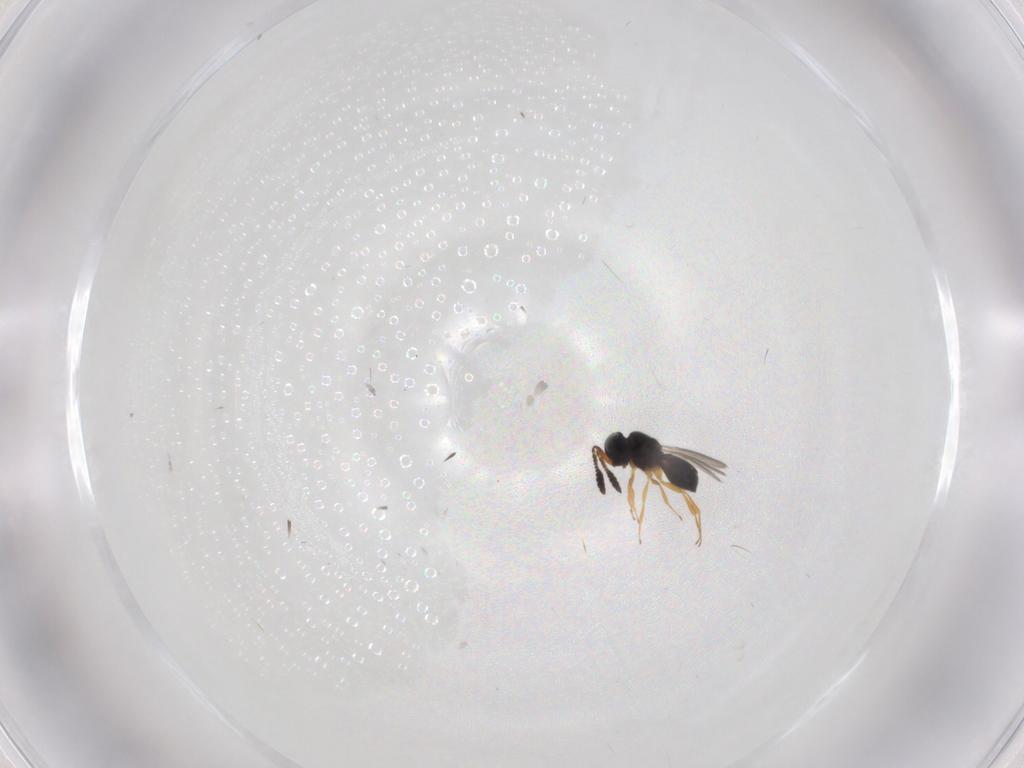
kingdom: Animalia
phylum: Arthropoda
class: Insecta
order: Hymenoptera
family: Scelionidae
